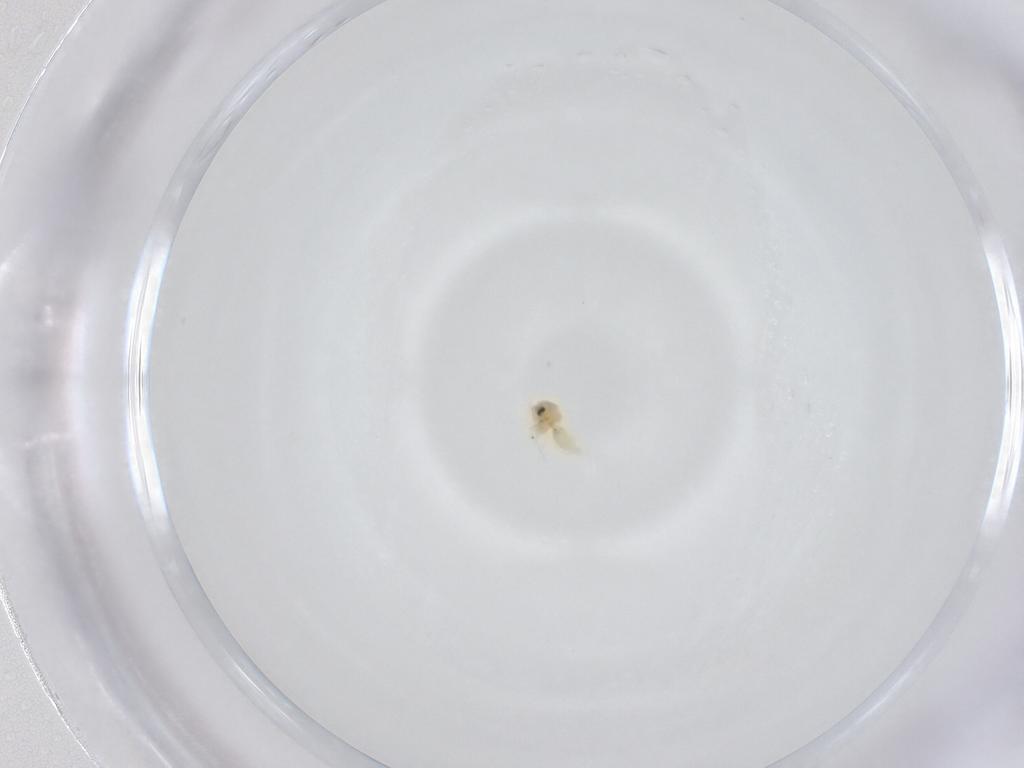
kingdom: Animalia
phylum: Arthropoda
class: Insecta
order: Hemiptera
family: Aleyrodidae
